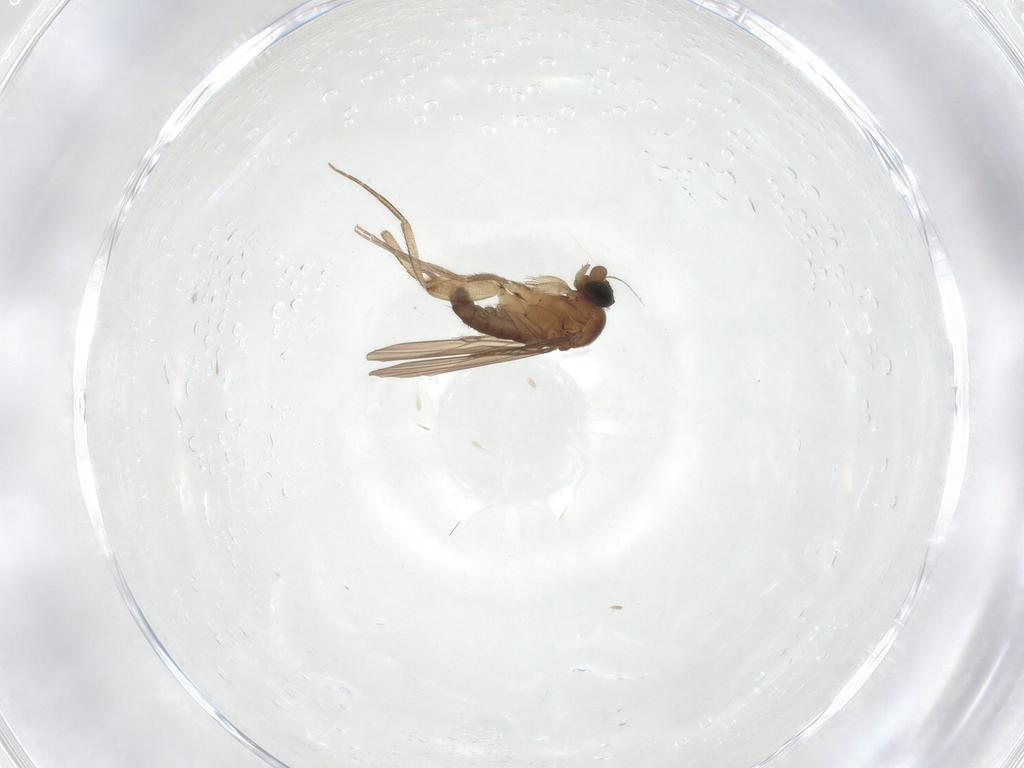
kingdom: Animalia
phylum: Arthropoda
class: Insecta
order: Diptera
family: Phoridae
